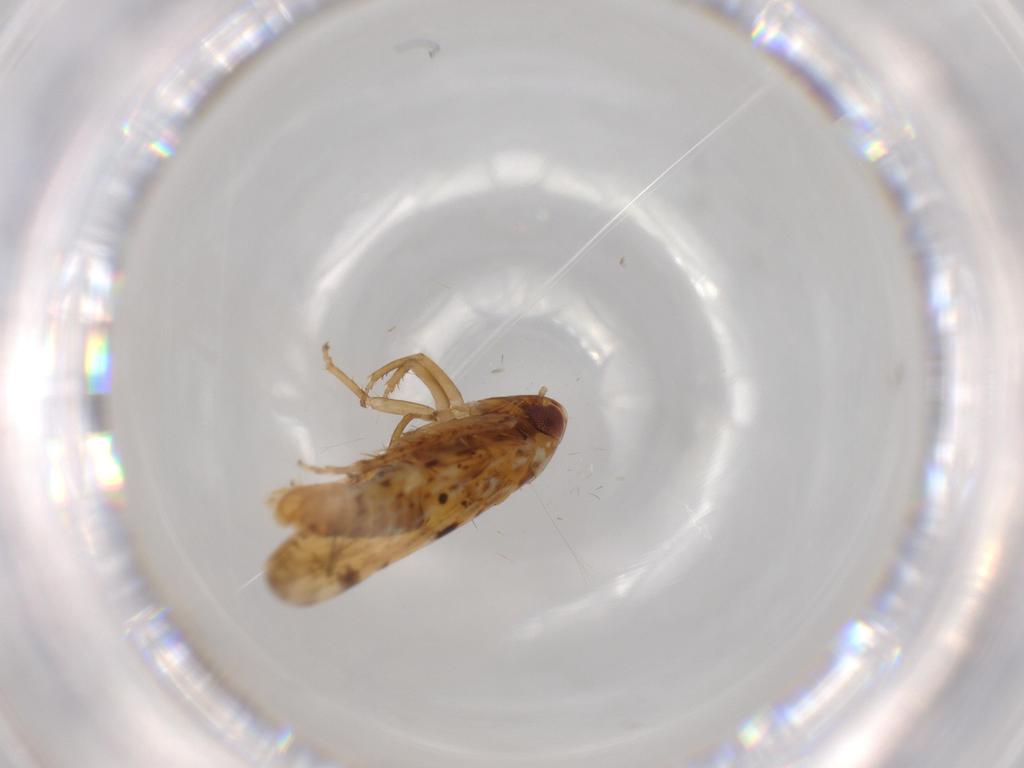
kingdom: Animalia
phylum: Arthropoda
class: Insecta
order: Hemiptera
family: Cicadellidae
